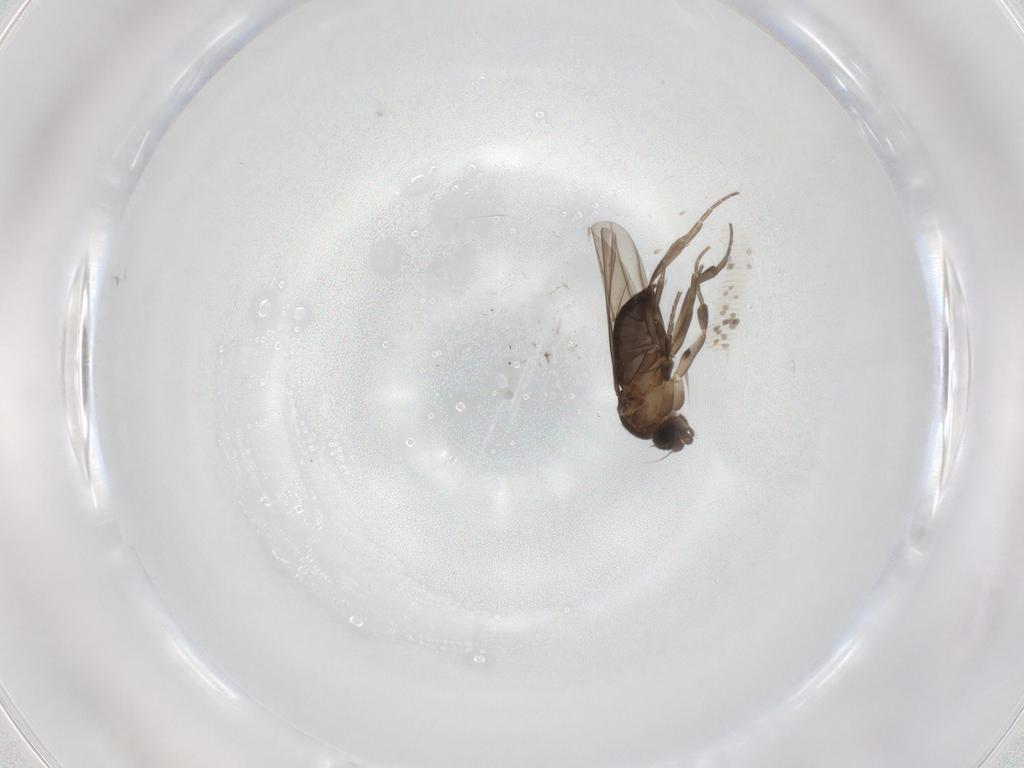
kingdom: Animalia
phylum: Arthropoda
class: Insecta
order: Diptera
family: Phoridae
